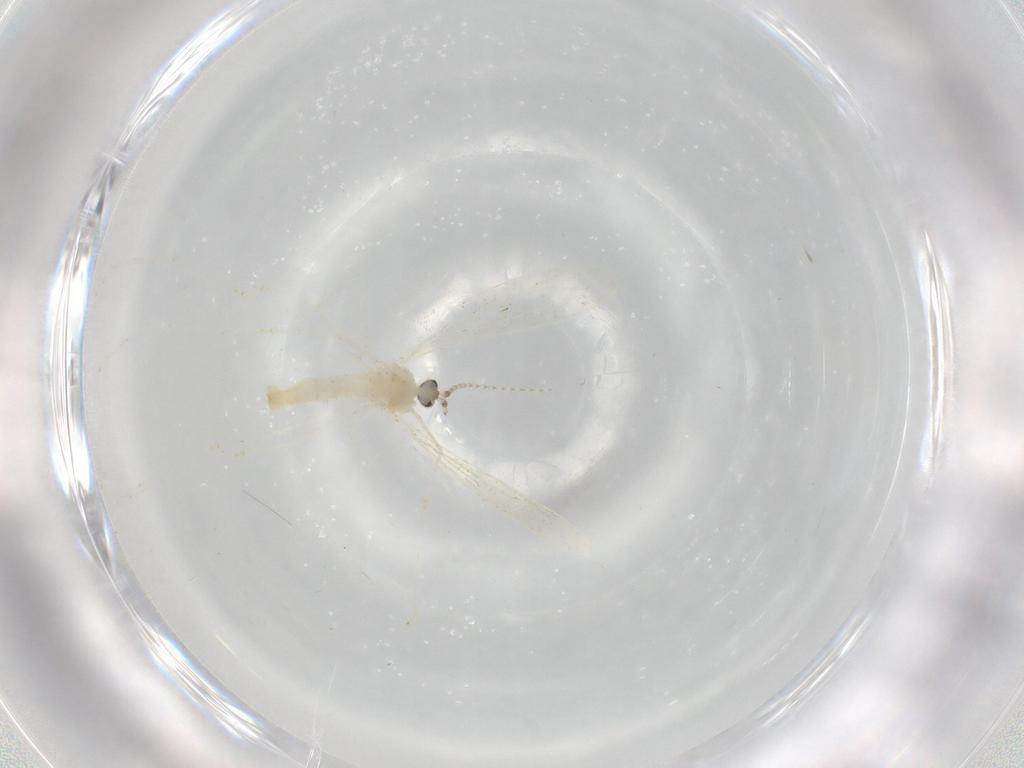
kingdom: Animalia
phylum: Arthropoda
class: Insecta
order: Diptera
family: Cecidomyiidae
